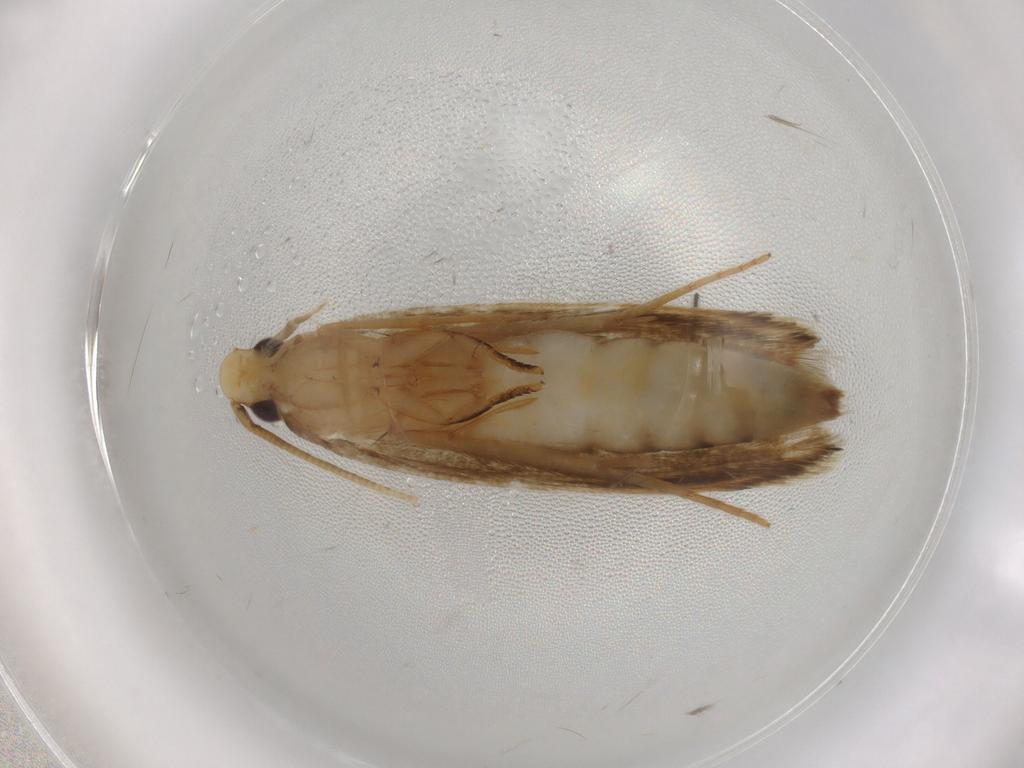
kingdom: Animalia
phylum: Arthropoda
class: Insecta
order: Lepidoptera
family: Tineidae
